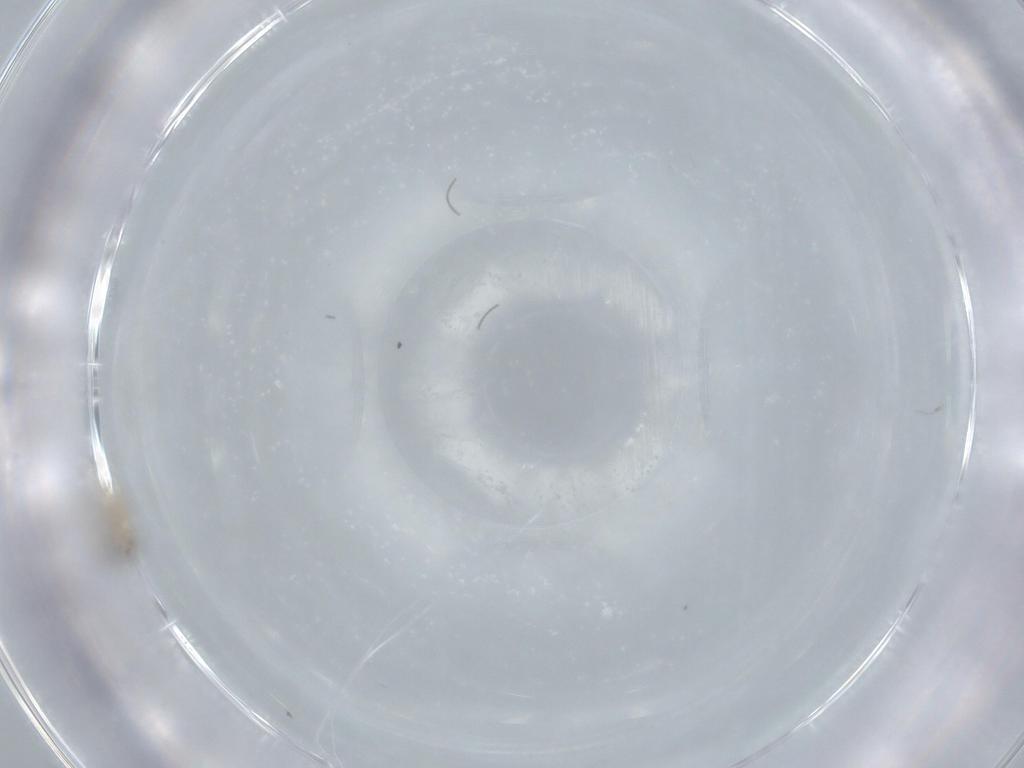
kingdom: Animalia
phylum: Arthropoda
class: Insecta
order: Diptera
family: Cecidomyiidae
